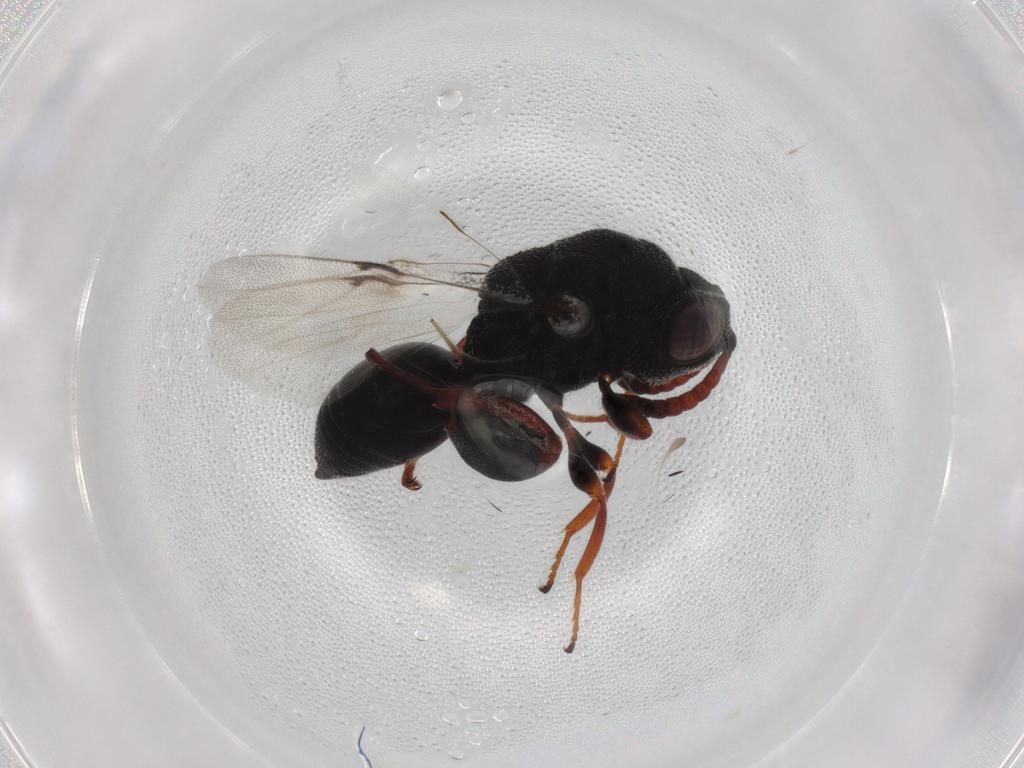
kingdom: Animalia
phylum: Arthropoda
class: Insecta
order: Hymenoptera
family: Chalcididae
